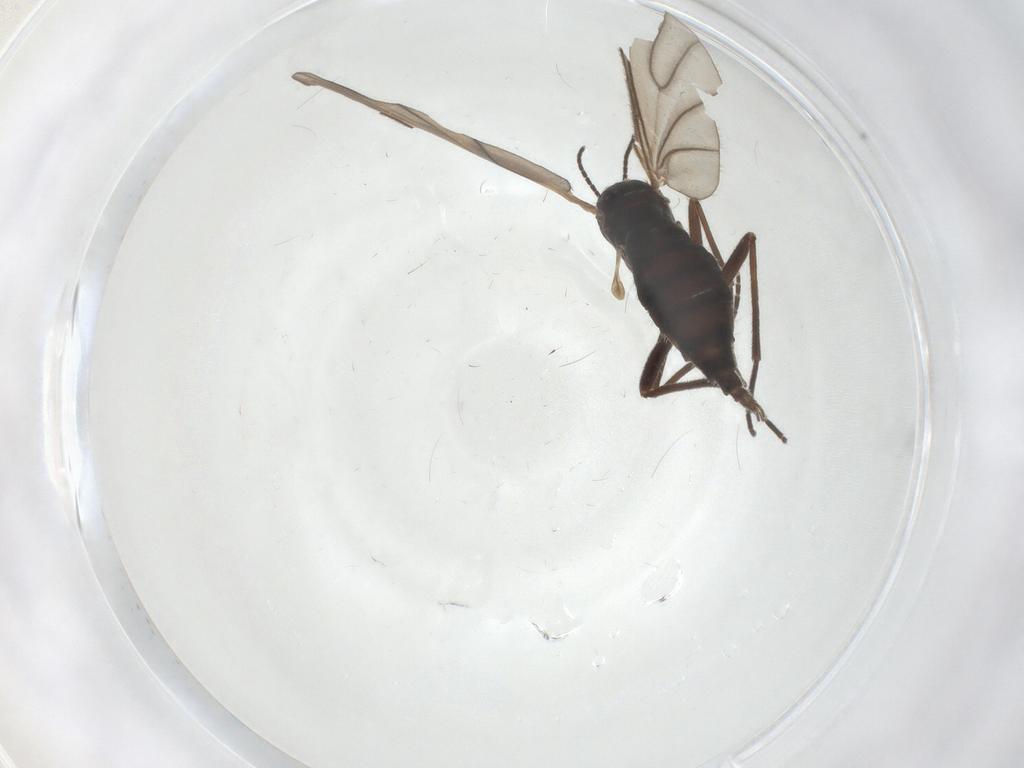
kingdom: Animalia
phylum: Arthropoda
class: Insecta
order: Diptera
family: Sciaridae
